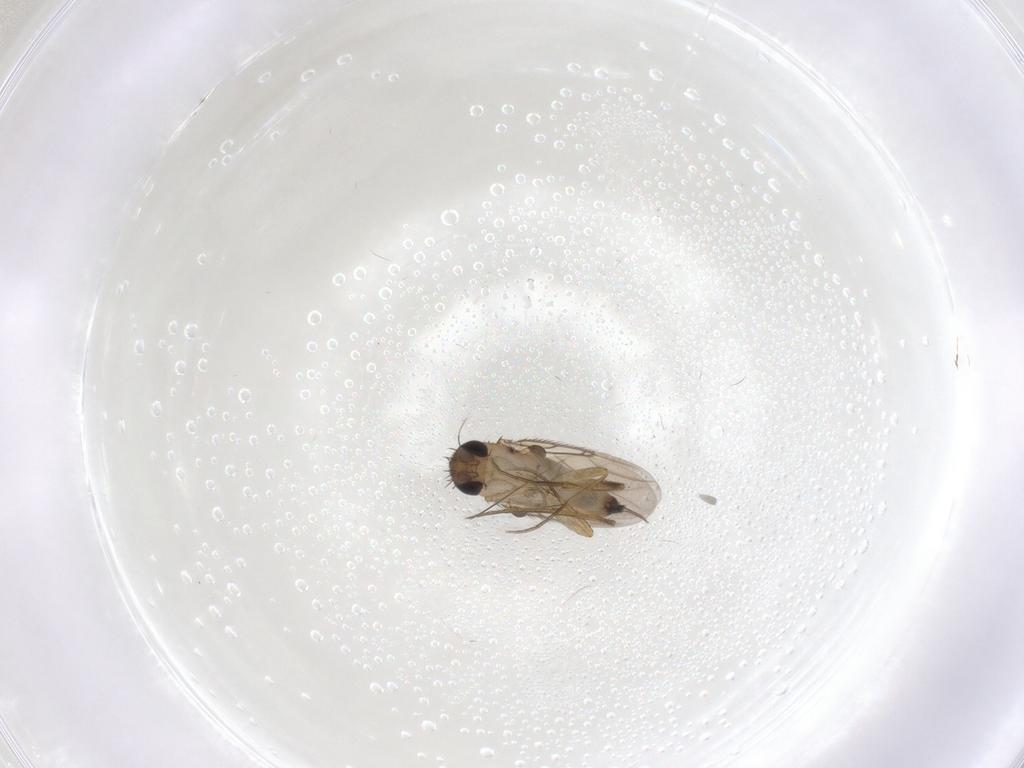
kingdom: Animalia
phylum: Arthropoda
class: Insecta
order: Diptera
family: Phoridae
